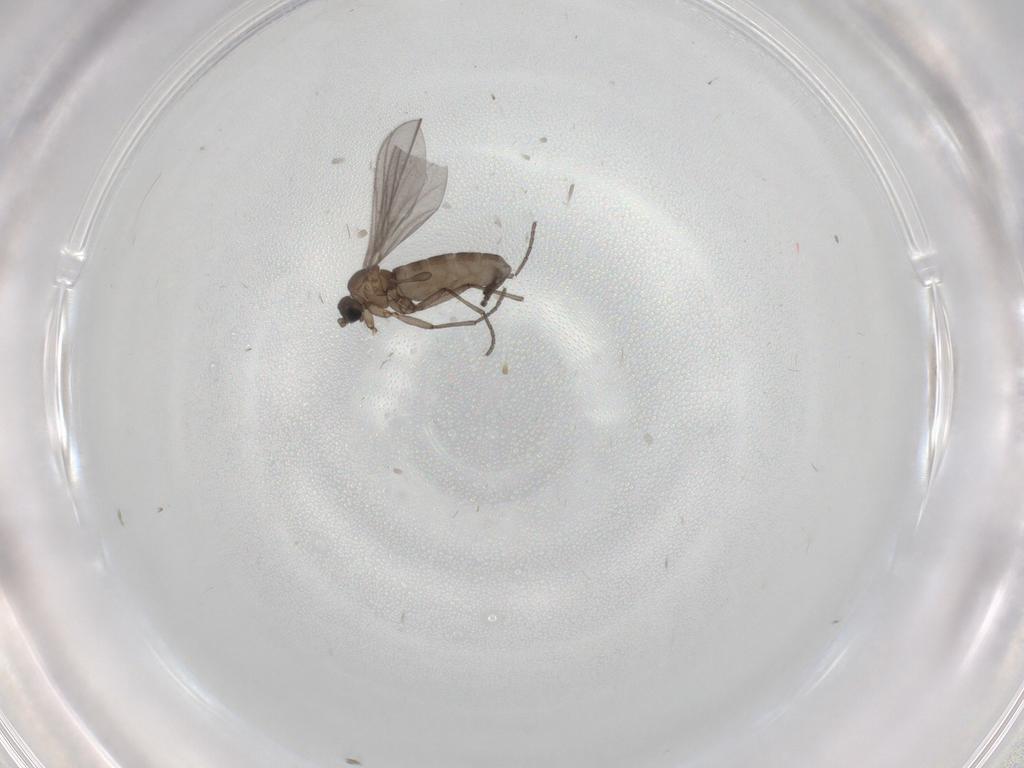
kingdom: Animalia
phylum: Arthropoda
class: Insecta
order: Diptera
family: Sciaridae
